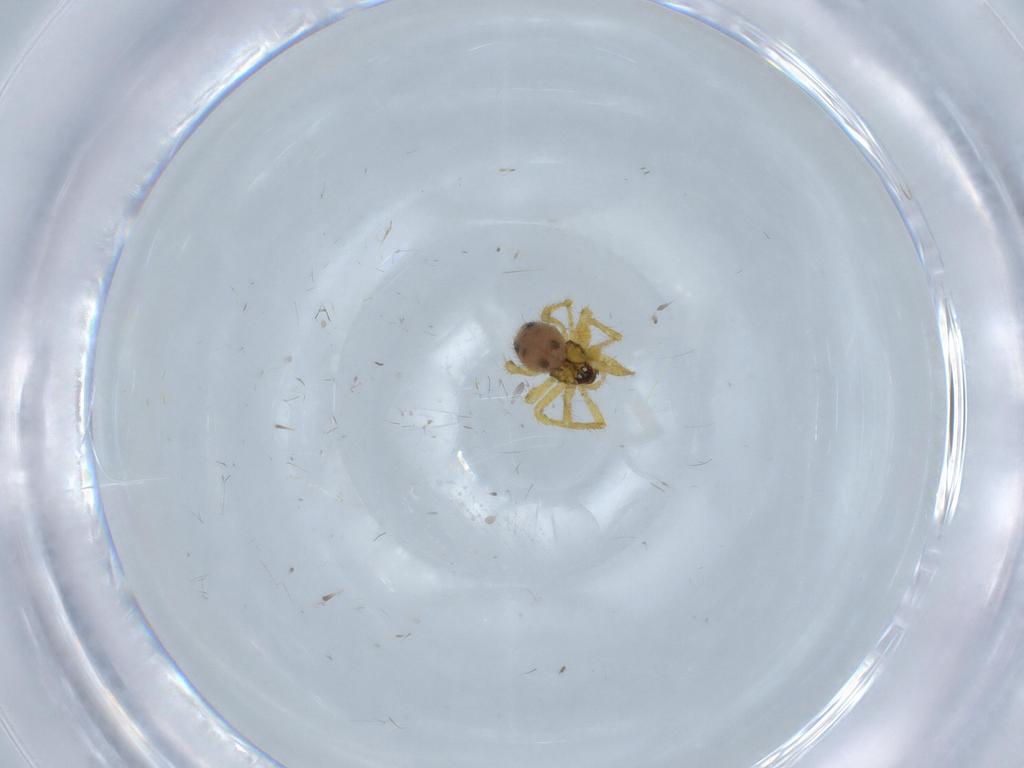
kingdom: Animalia
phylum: Arthropoda
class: Arachnida
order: Araneae
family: Theridiidae
